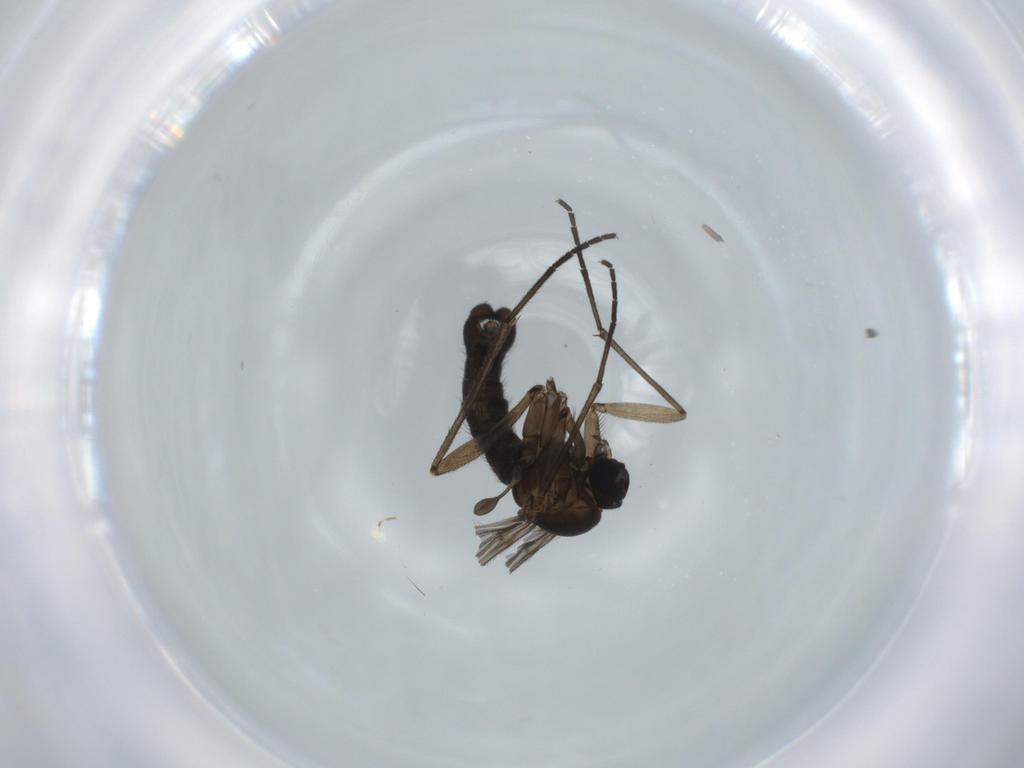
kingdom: Animalia
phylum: Arthropoda
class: Insecta
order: Diptera
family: Sciaridae
